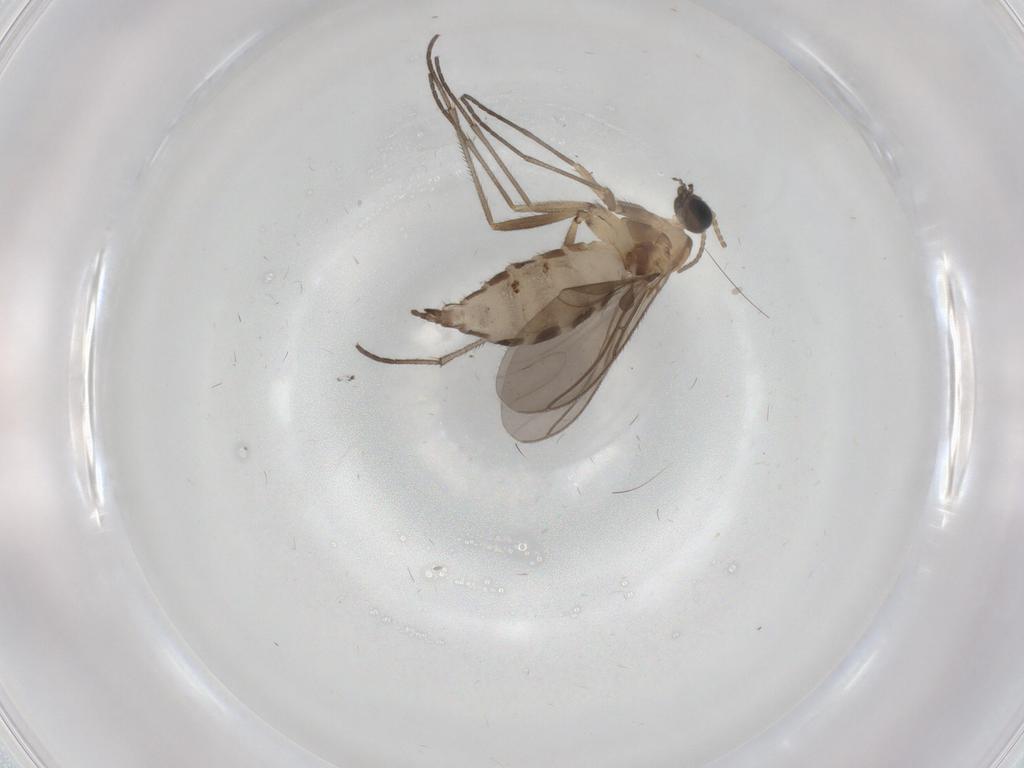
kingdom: Animalia
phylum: Arthropoda
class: Insecta
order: Diptera
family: Sciaridae
